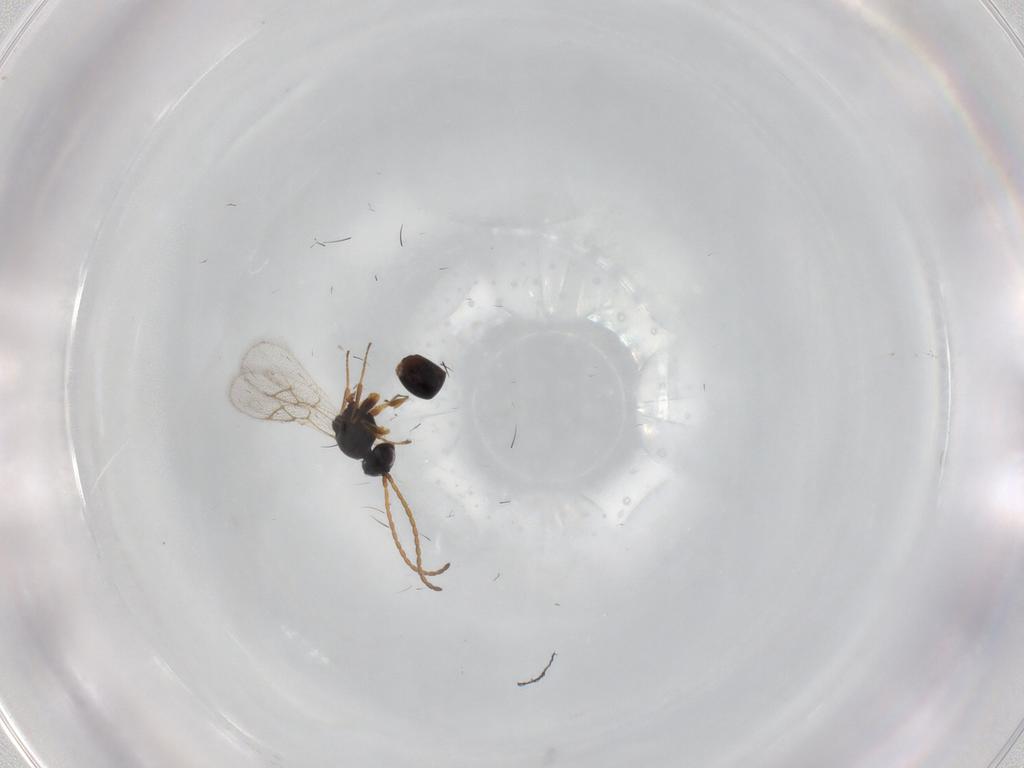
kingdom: Animalia
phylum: Arthropoda
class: Insecta
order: Hymenoptera
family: Figitidae
